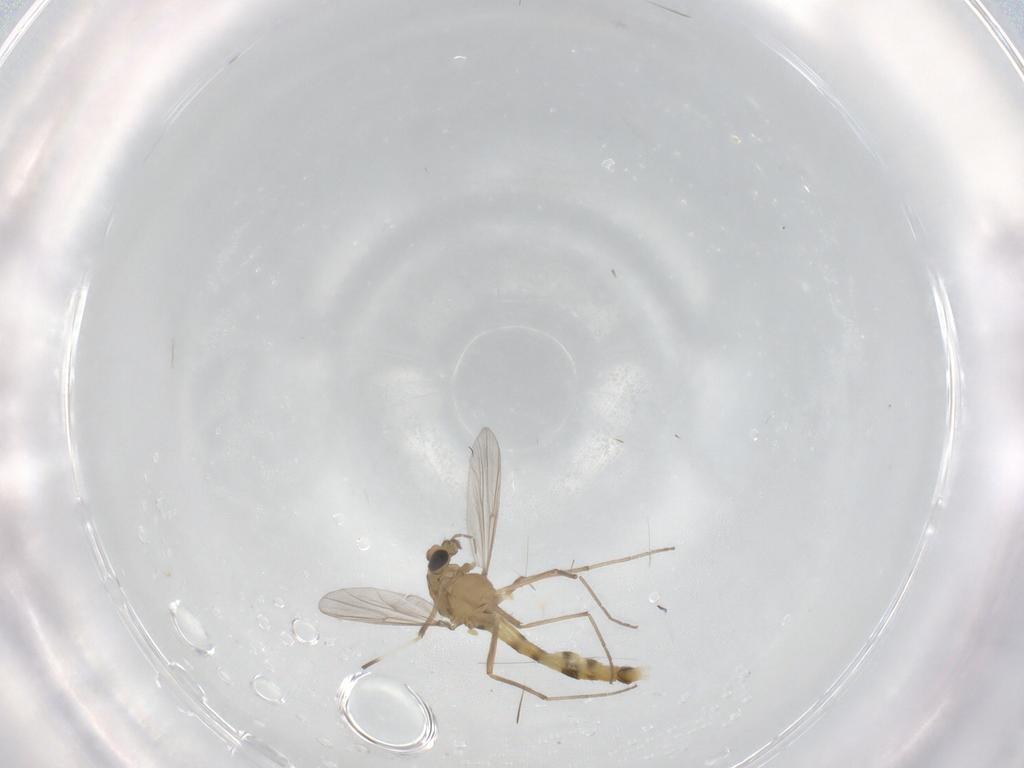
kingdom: Animalia
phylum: Arthropoda
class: Insecta
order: Diptera
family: Chironomidae
